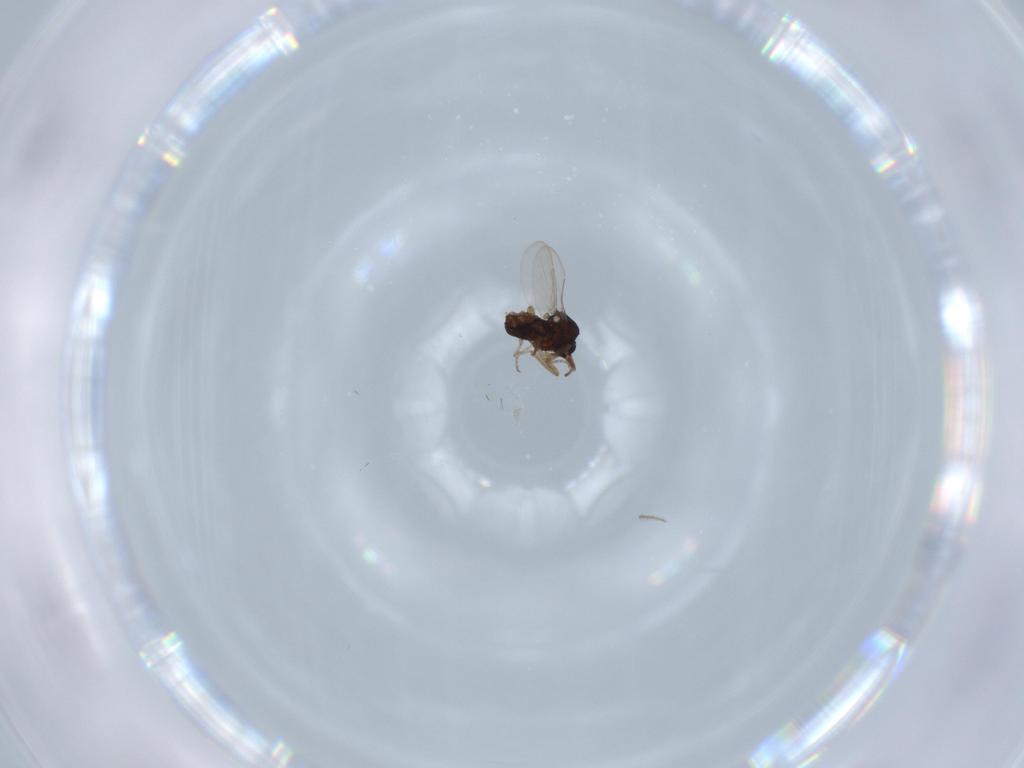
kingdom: Animalia
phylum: Arthropoda
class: Insecta
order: Diptera
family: Ceratopogonidae
